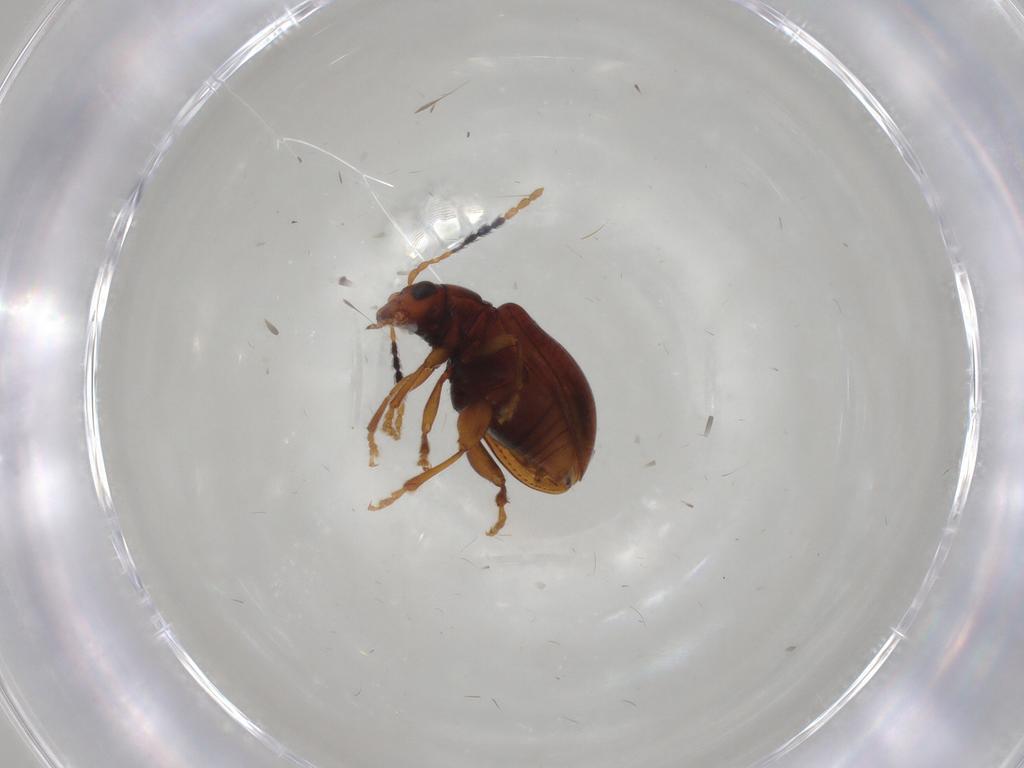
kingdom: Animalia
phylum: Arthropoda
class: Insecta
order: Coleoptera
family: Chrysomelidae
